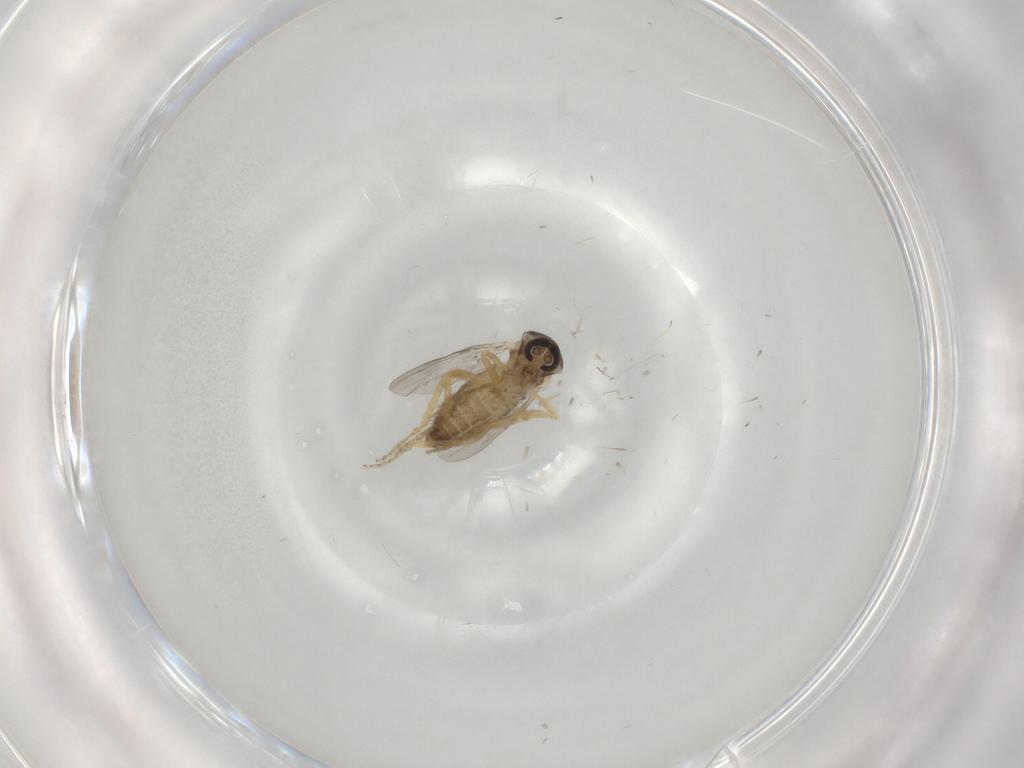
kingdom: Animalia
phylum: Arthropoda
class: Insecta
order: Diptera
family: Ceratopogonidae
